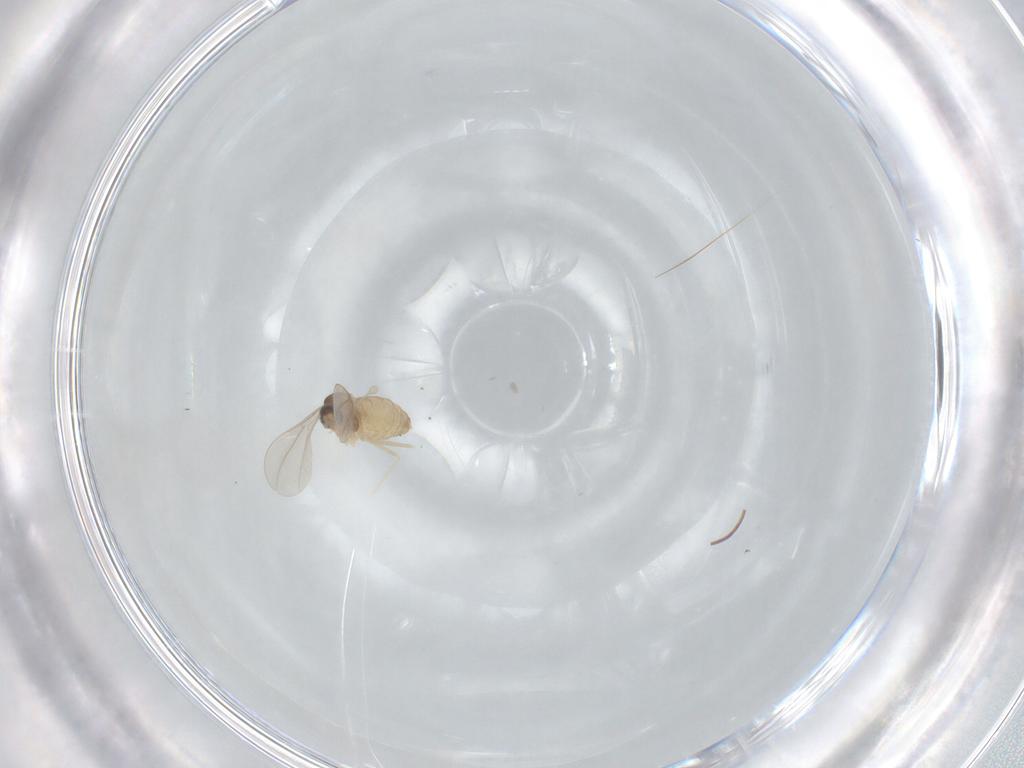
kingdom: Animalia
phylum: Arthropoda
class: Insecta
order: Diptera
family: Cecidomyiidae
